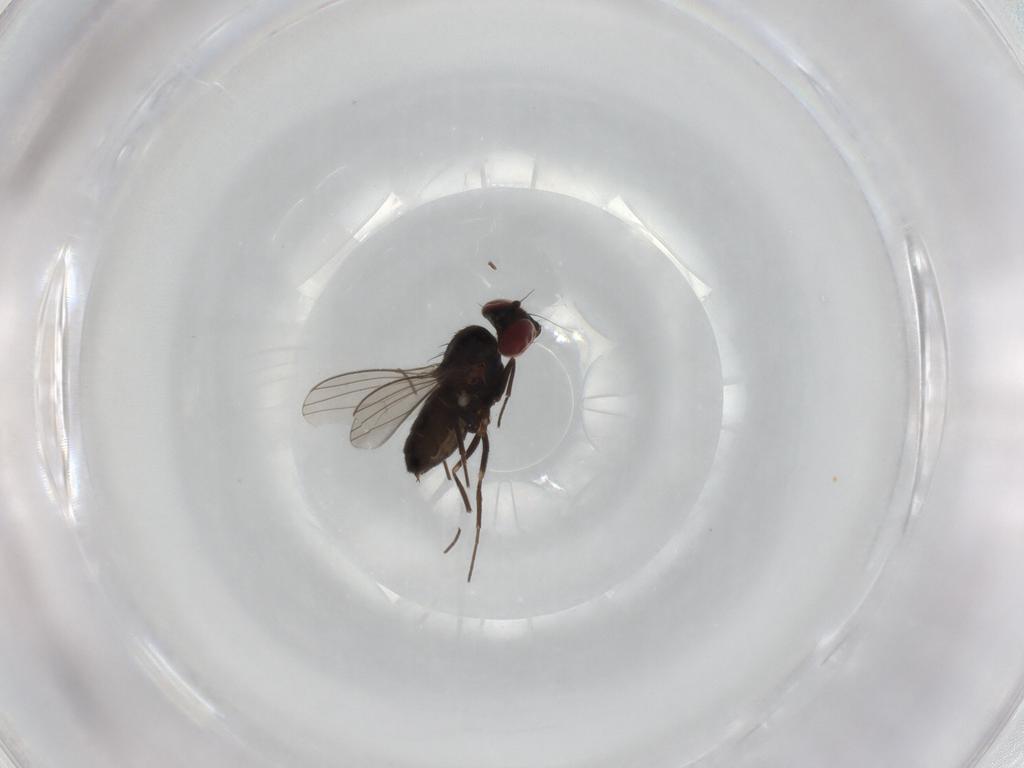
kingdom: Animalia
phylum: Arthropoda
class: Insecta
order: Diptera
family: Dolichopodidae
